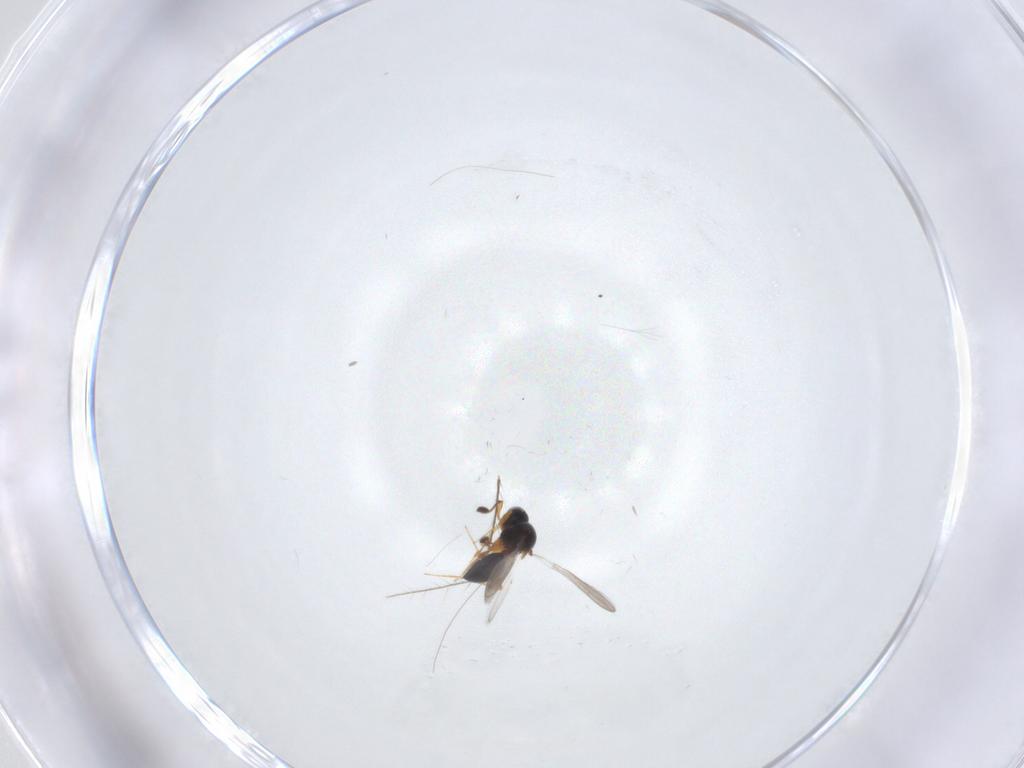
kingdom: Animalia
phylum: Arthropoda
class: Insecta
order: Hymenoptera
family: Platygastridae
